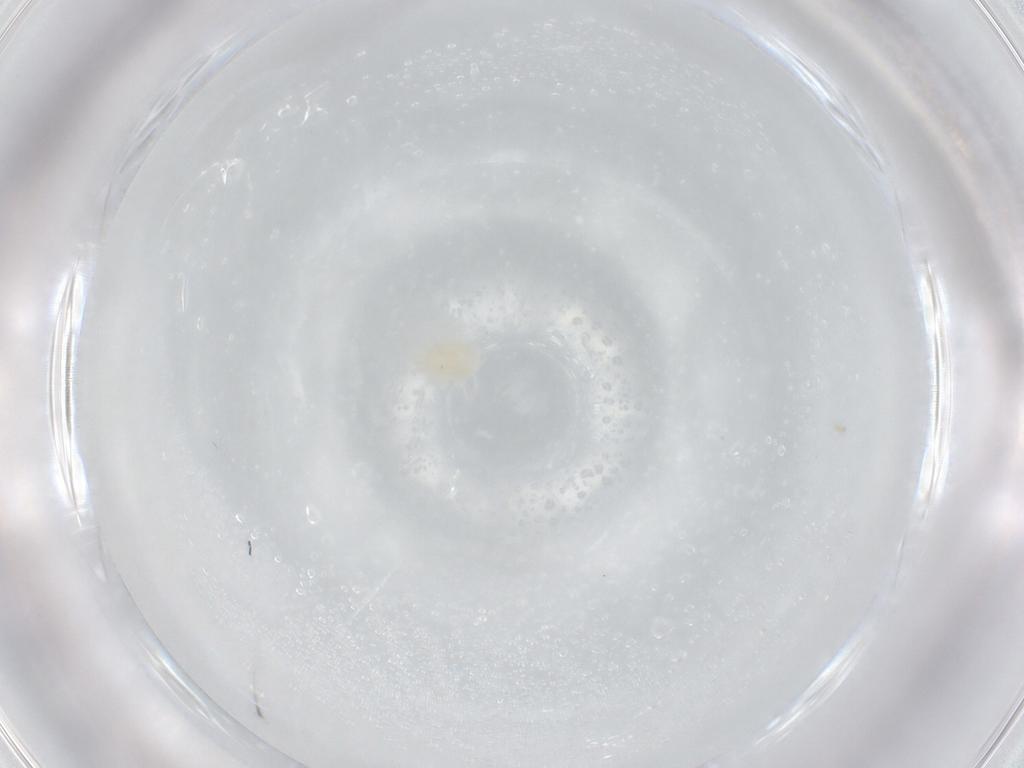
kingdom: Animalia
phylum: Arthropoda
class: Arachnida
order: Mesostigmata
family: Melicharidae
